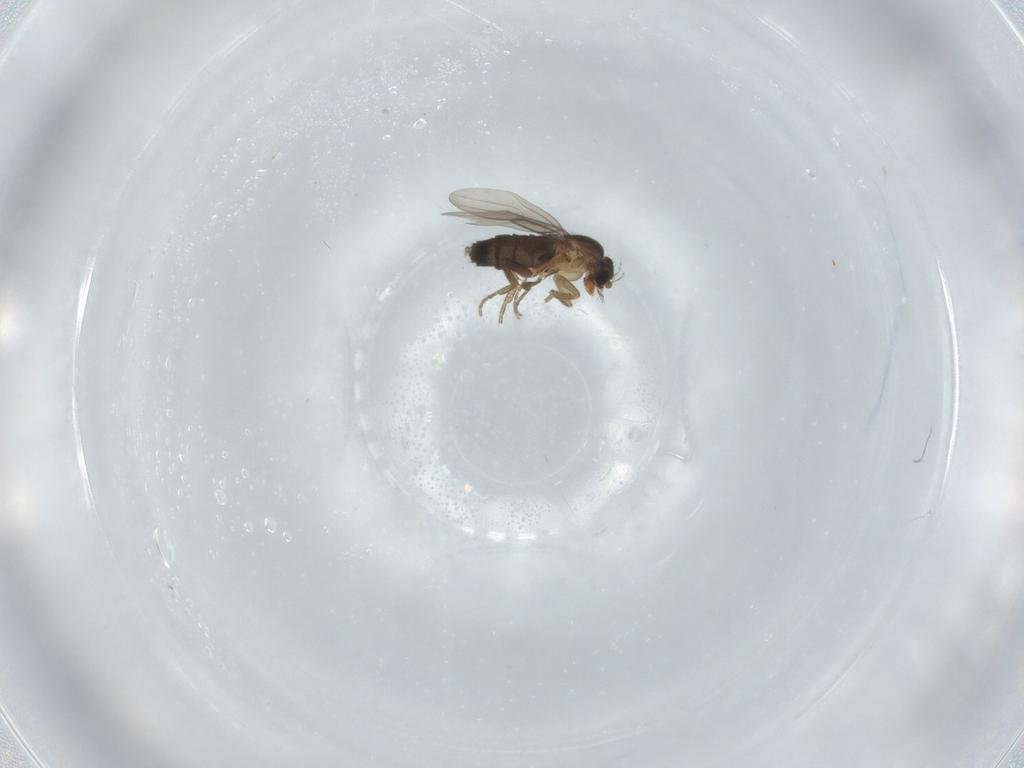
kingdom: Animalia
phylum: Arthropoda
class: Insecta
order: Diptera
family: Phoridae
